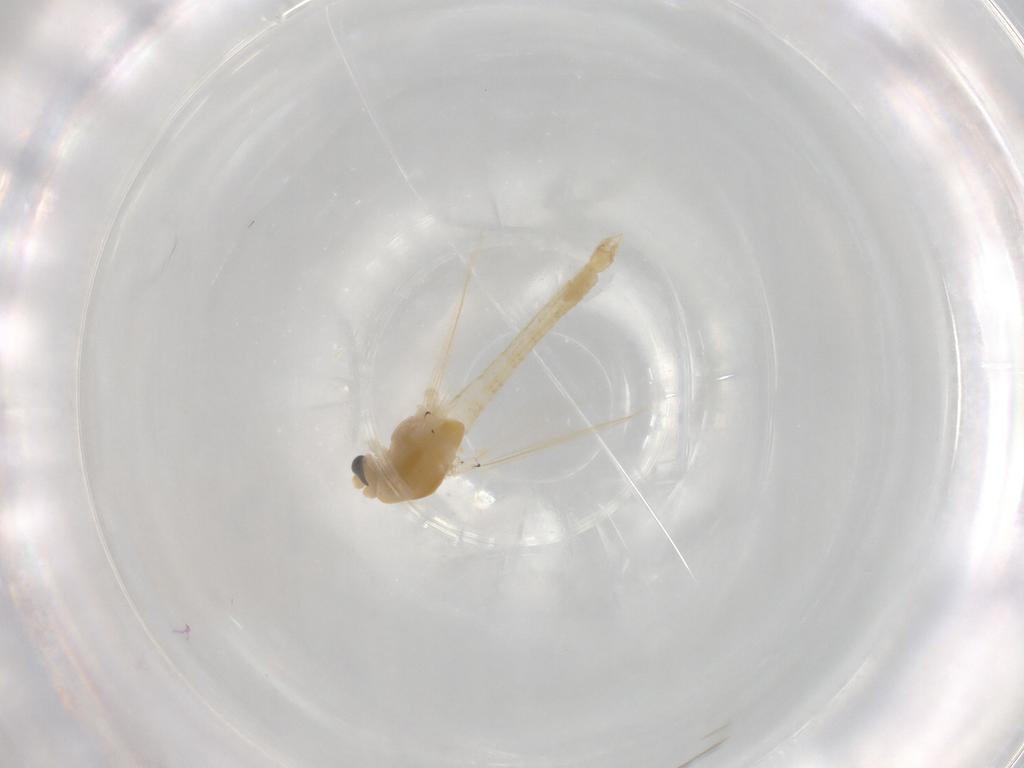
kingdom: Animalia
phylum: Arthropoda
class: Insecta
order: Diptera
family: Chironomidae
